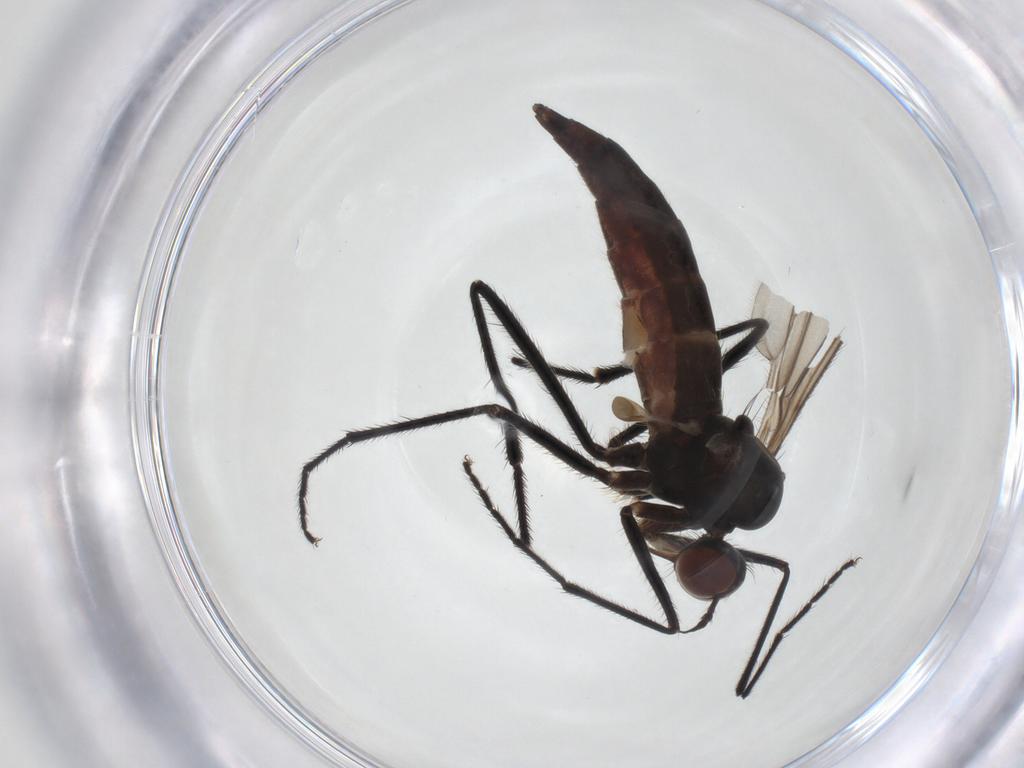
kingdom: Animalia
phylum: Arthropoda
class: Insecta
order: Diptera
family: Empididae
